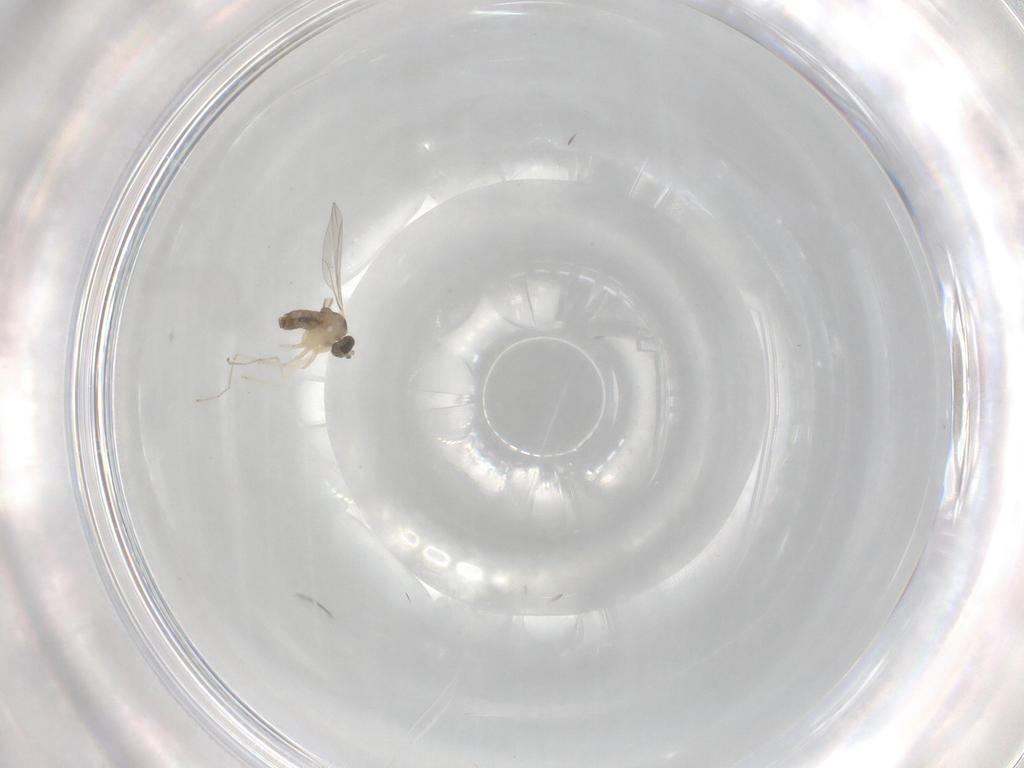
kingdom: Animalia
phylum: Arthropoda
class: Insecta
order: Diptera
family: Cecidomyiidae
